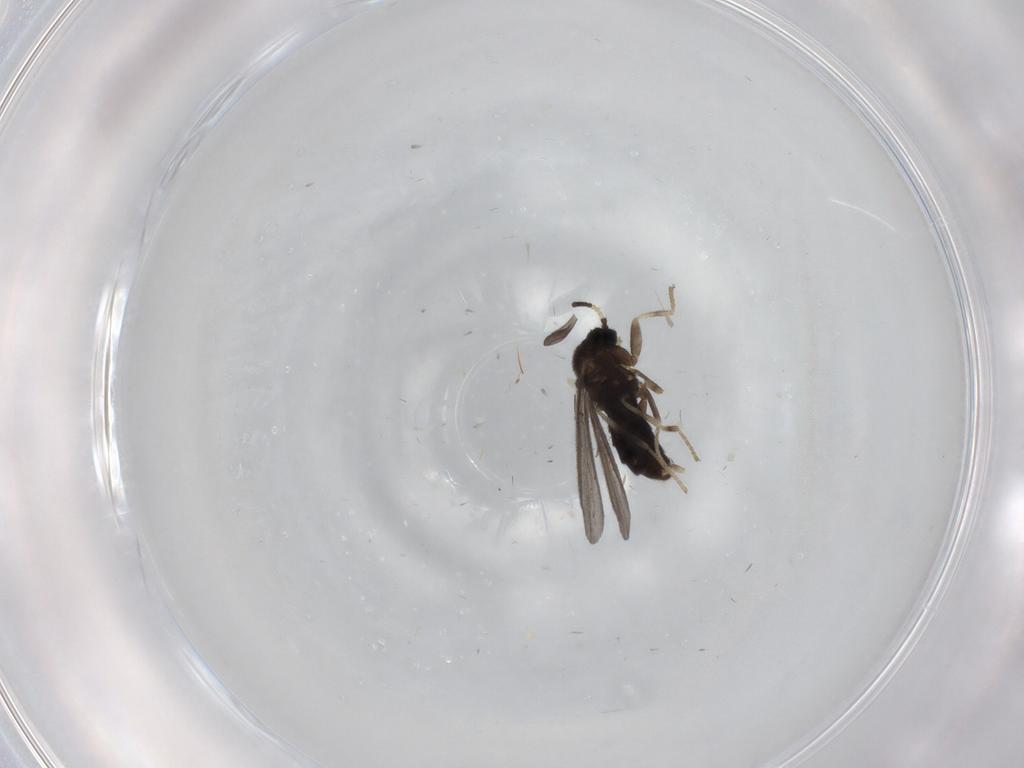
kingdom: Animalia
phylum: Arthropoda
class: Insecta
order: Diptera
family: Scatopsidae
